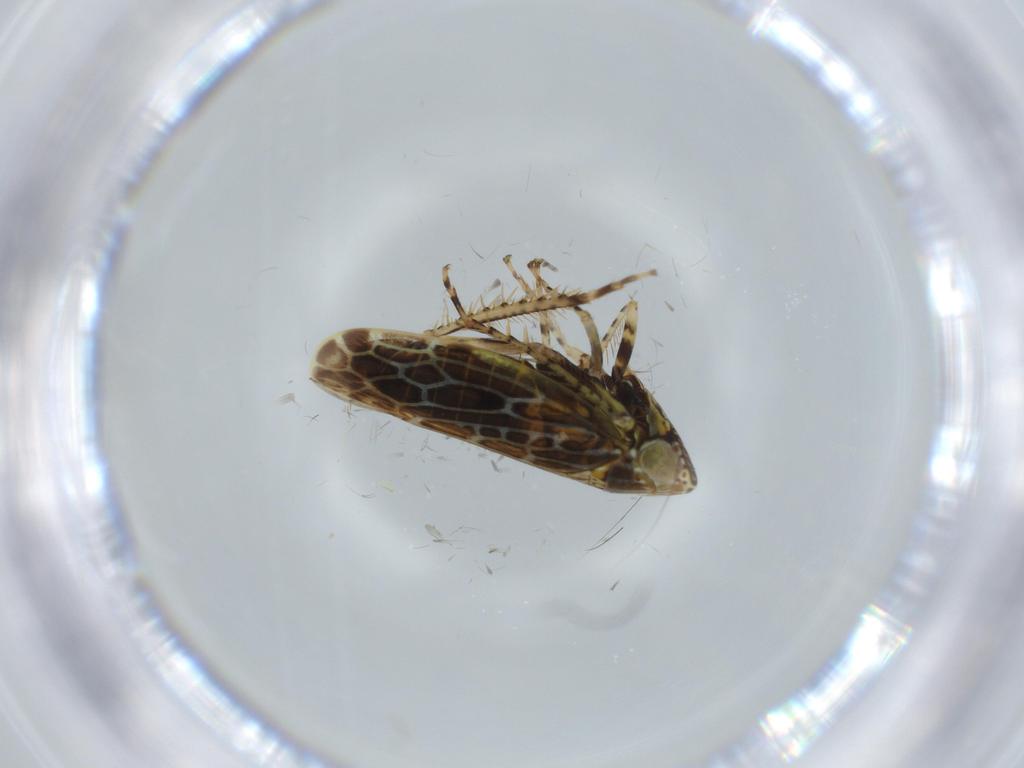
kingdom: Animalia
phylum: Arthropoda
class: Insecta
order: Hemiptera
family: Cicadellidae
